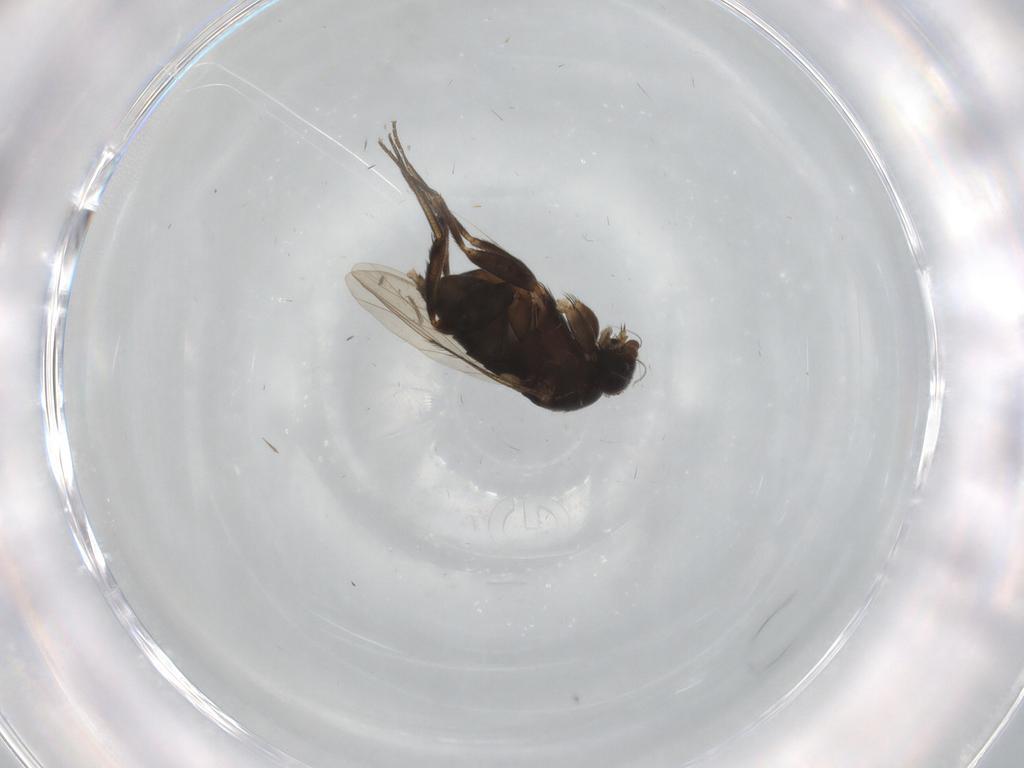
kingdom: Animalia
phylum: Arthropoda
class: Insecta
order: Diptera
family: Phoridae
